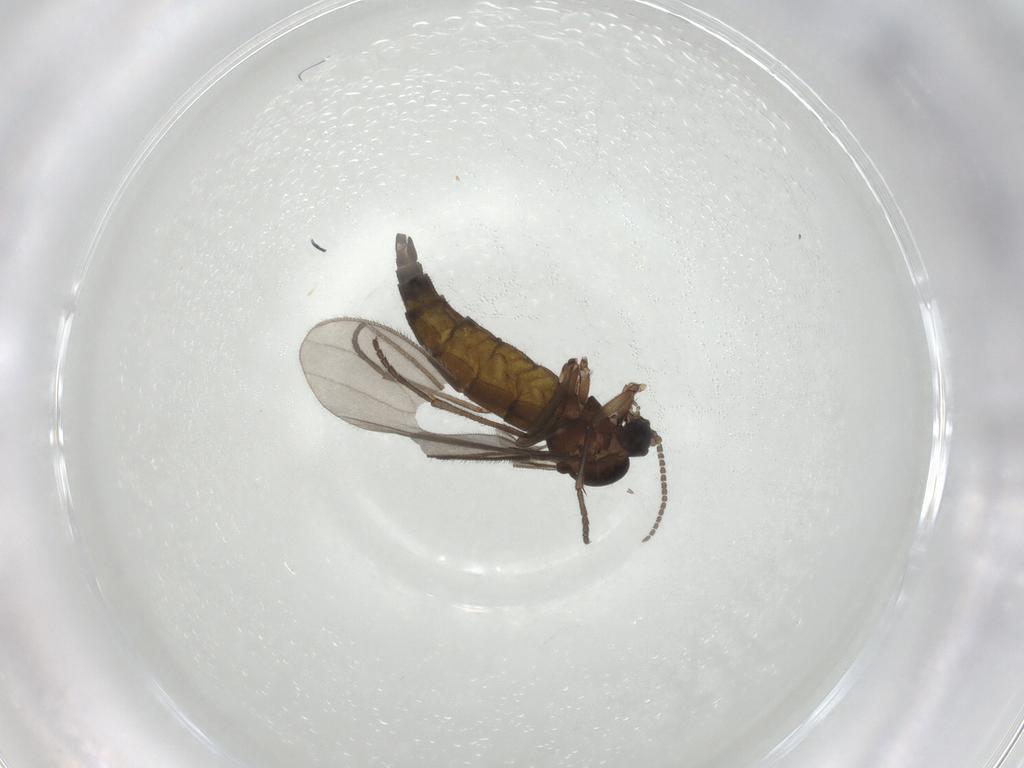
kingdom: Animalia
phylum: Arthropoda
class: Insecta
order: Diptera
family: Sciaridae
